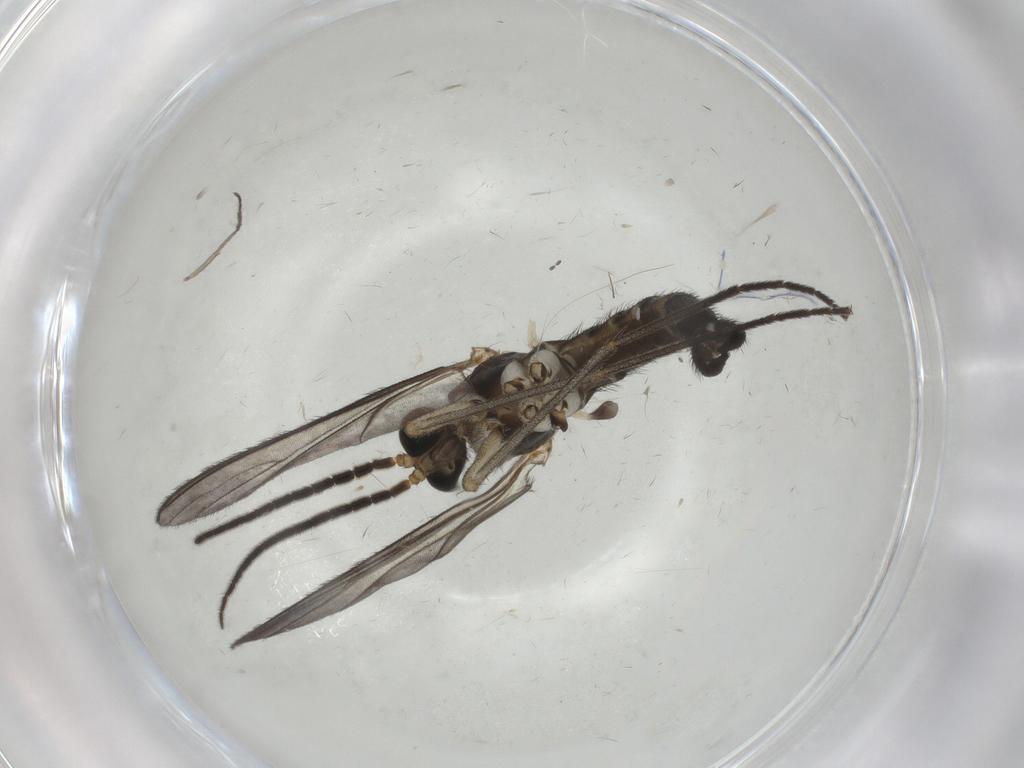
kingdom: Animalia
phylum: Arthropoda
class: Insecta
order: Diptera
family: Sciaridae
